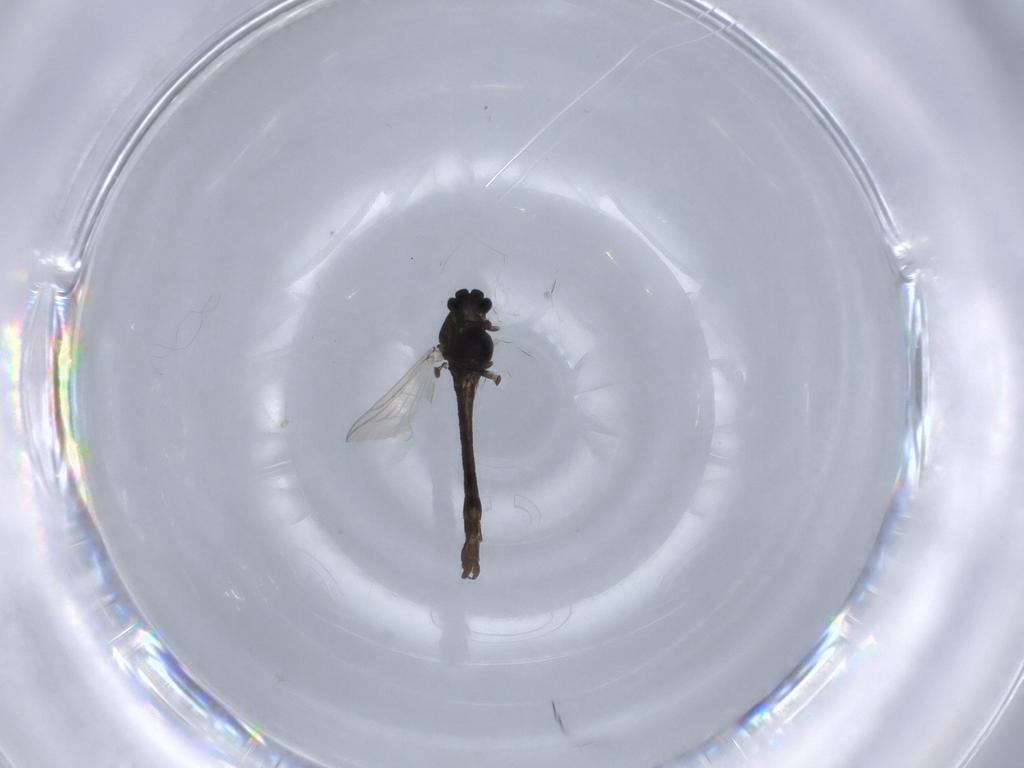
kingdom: Animalia
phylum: Arthropoda
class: Insecta
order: Diptera
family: Chironomidae
